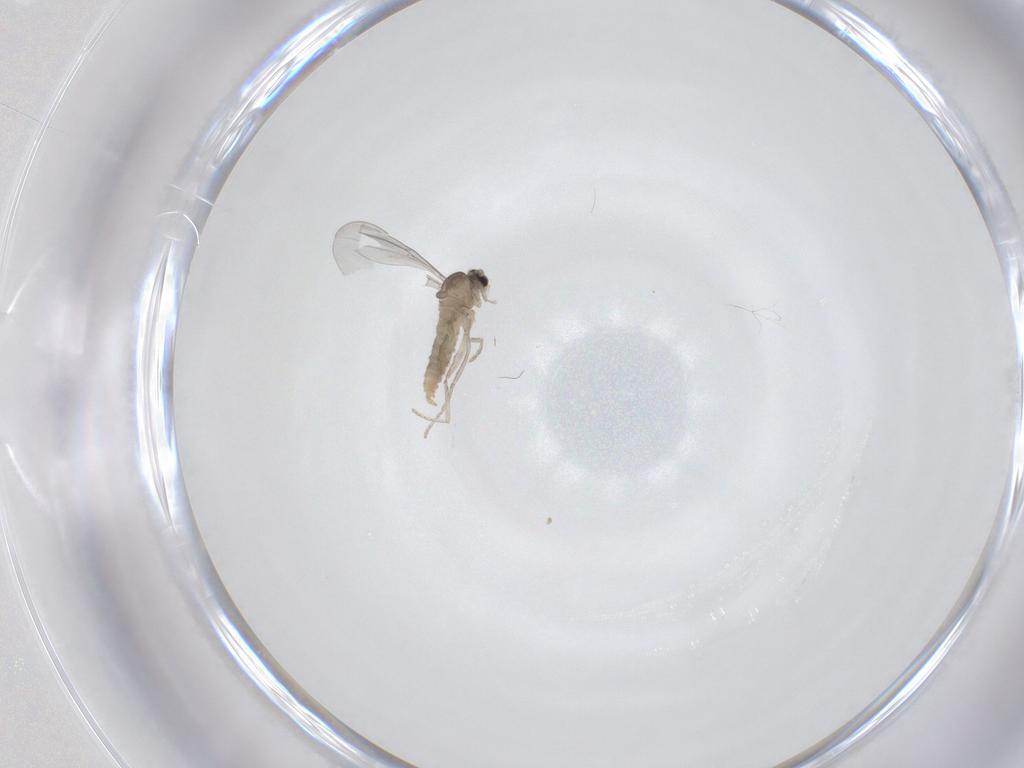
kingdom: Animalia
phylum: Arthropoda
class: Insecta
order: Diptera
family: Cecidomyiidae
